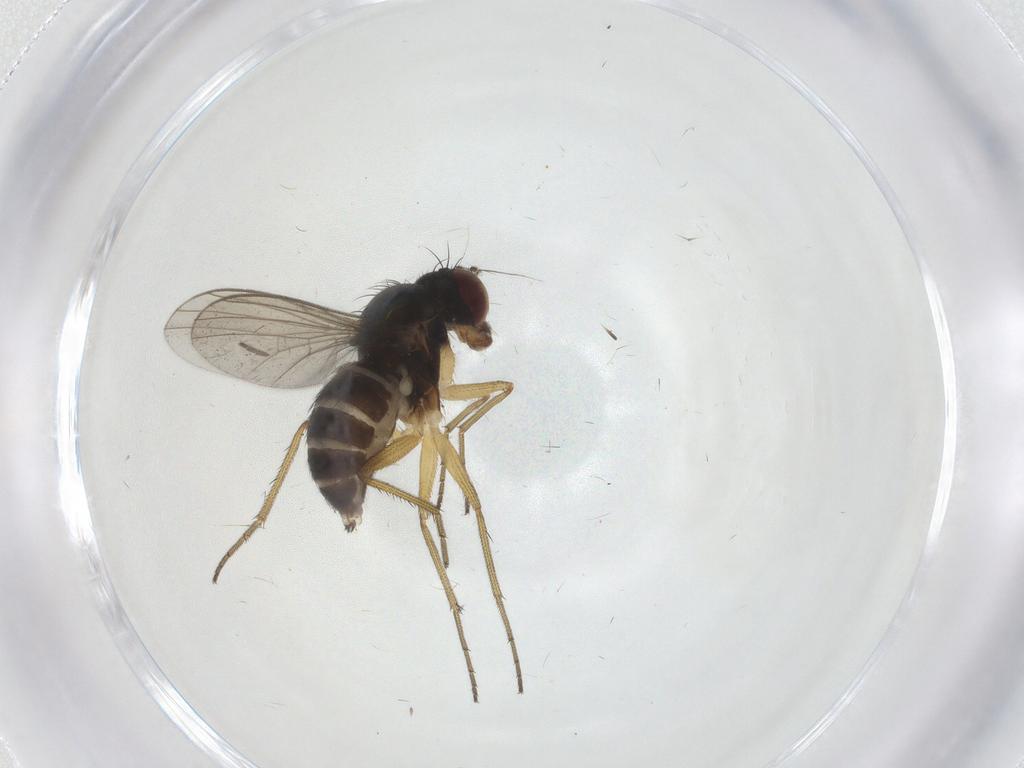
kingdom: Animalia
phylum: Arthropoda
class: Insecta
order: Diptera
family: Dolichopodidae
